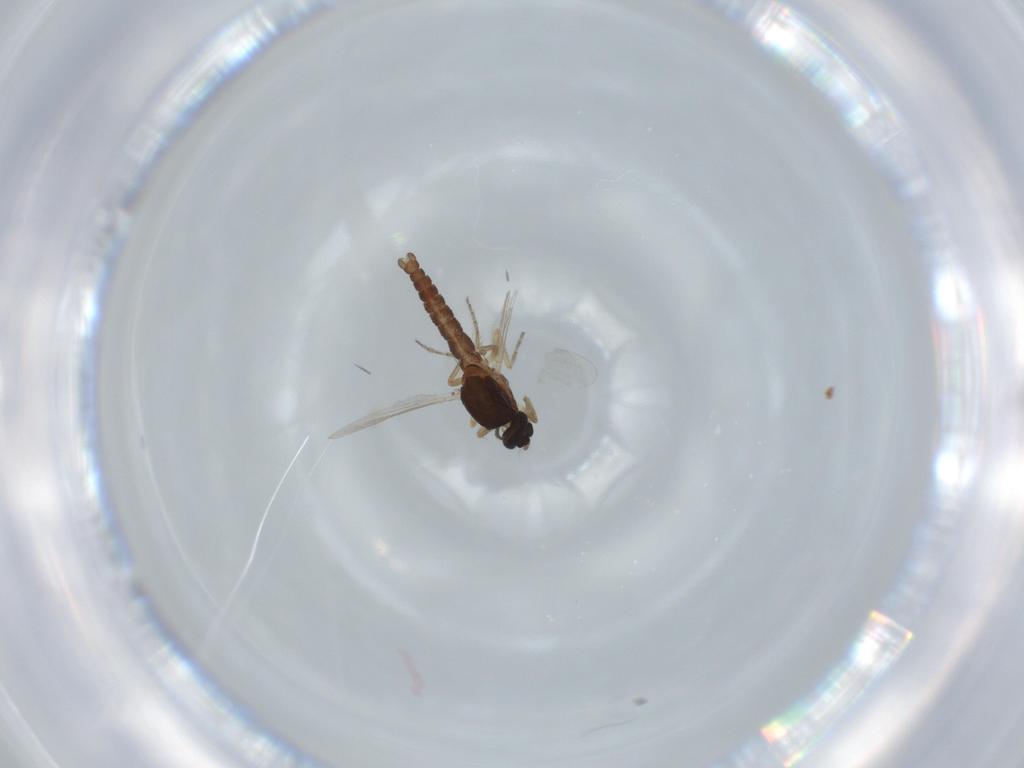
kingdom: Animalia
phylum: Arthropoda
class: Insecta
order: Diptera
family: Ceratopogonidae
